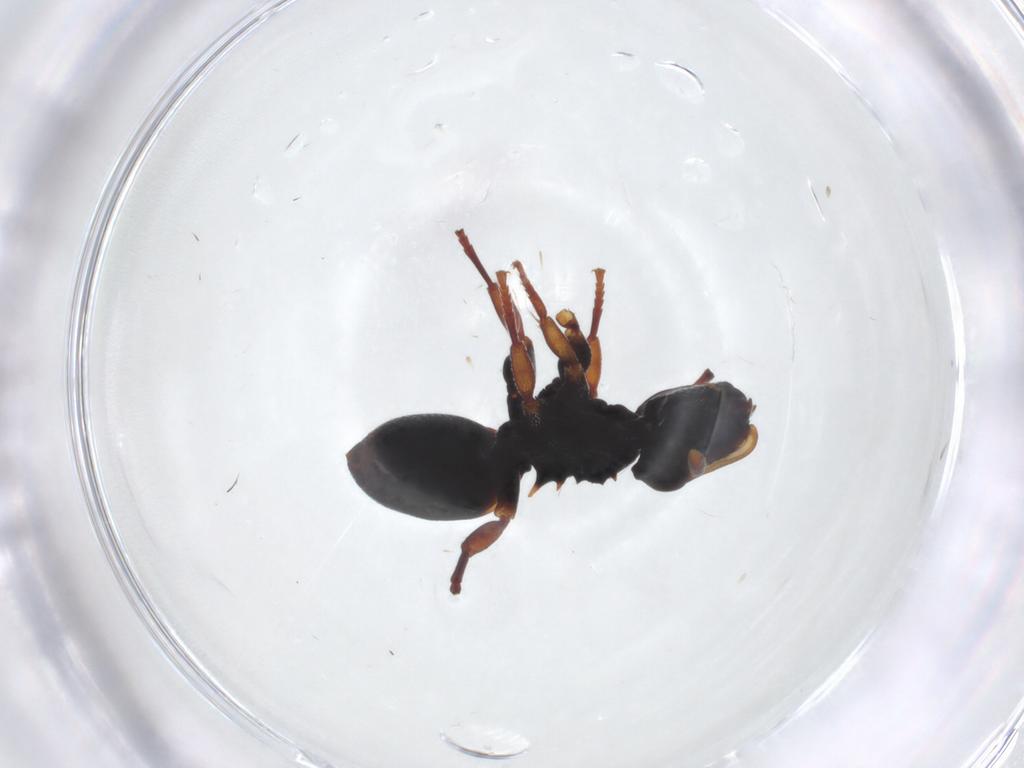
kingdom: Animalia
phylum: Arthropoda
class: Insecta
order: Hymenoptera
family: Formicidae
